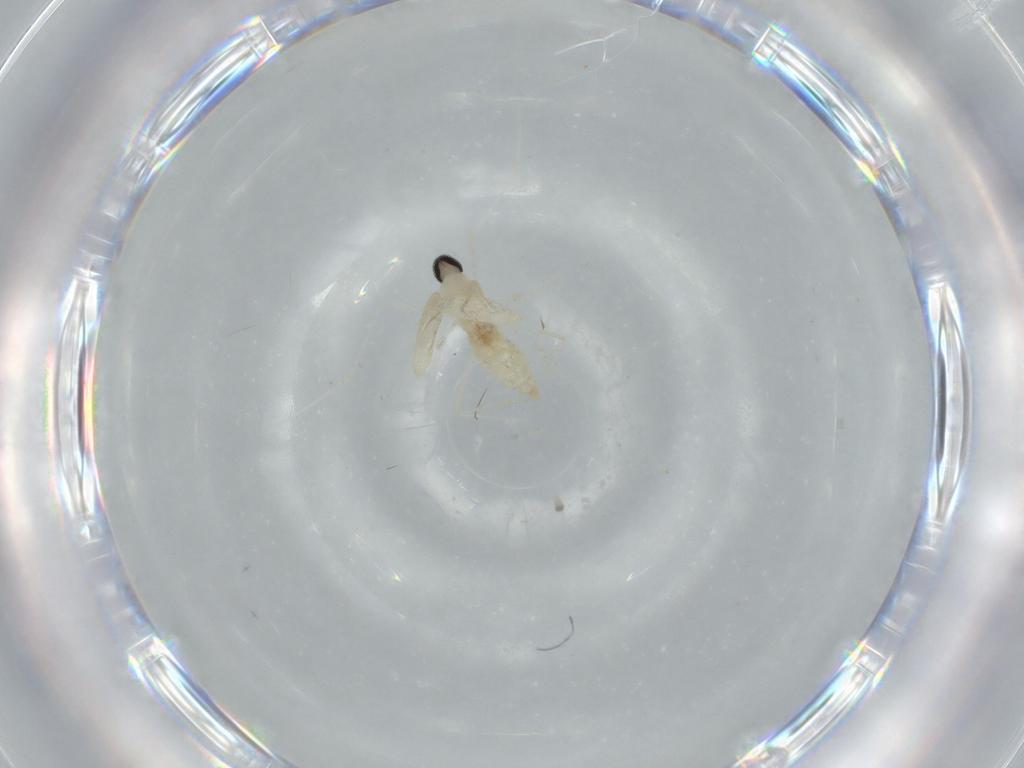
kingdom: Animalia
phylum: Arthropoda
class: Insecta
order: Diptera
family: Cecidomyiidae
